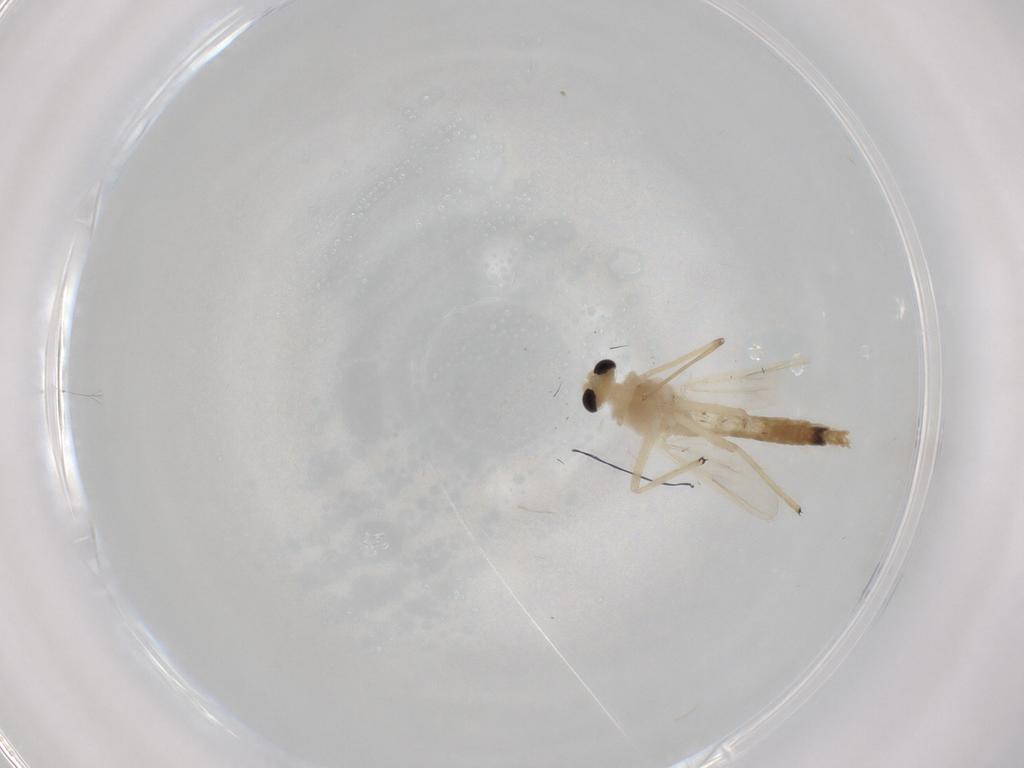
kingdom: Animalia
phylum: Arthropoda
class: Insecta
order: Diptera
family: Chironomidae
